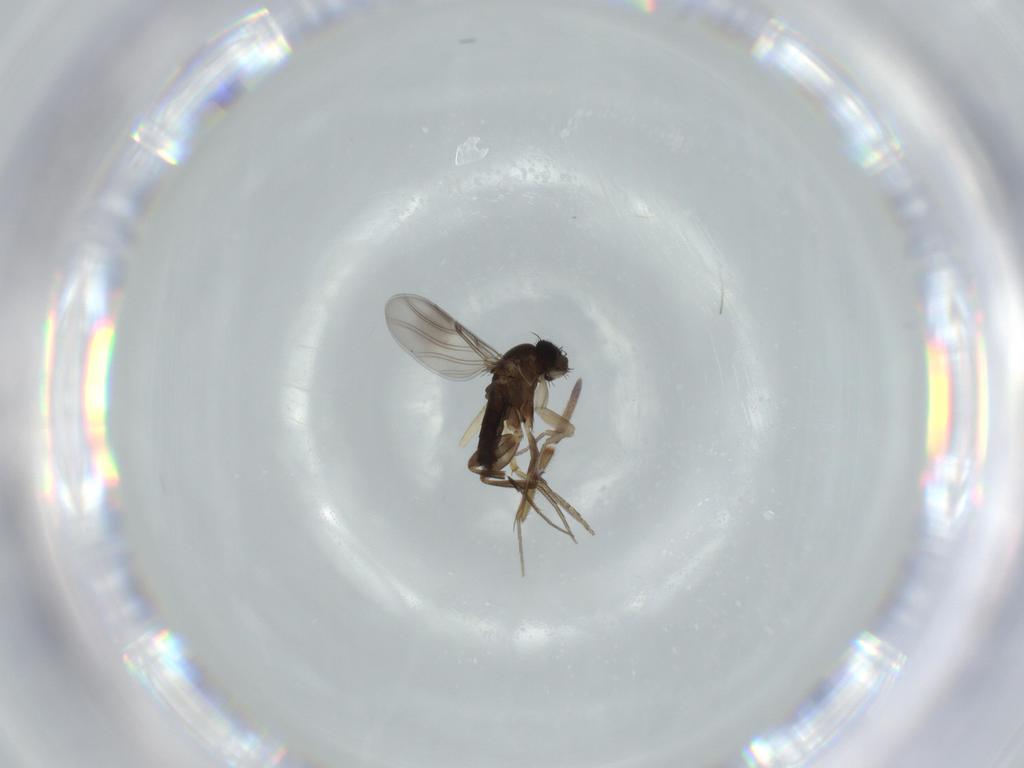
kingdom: Animalia
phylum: Arthropoda
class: Insecta
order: Diptera
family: Phoridae
